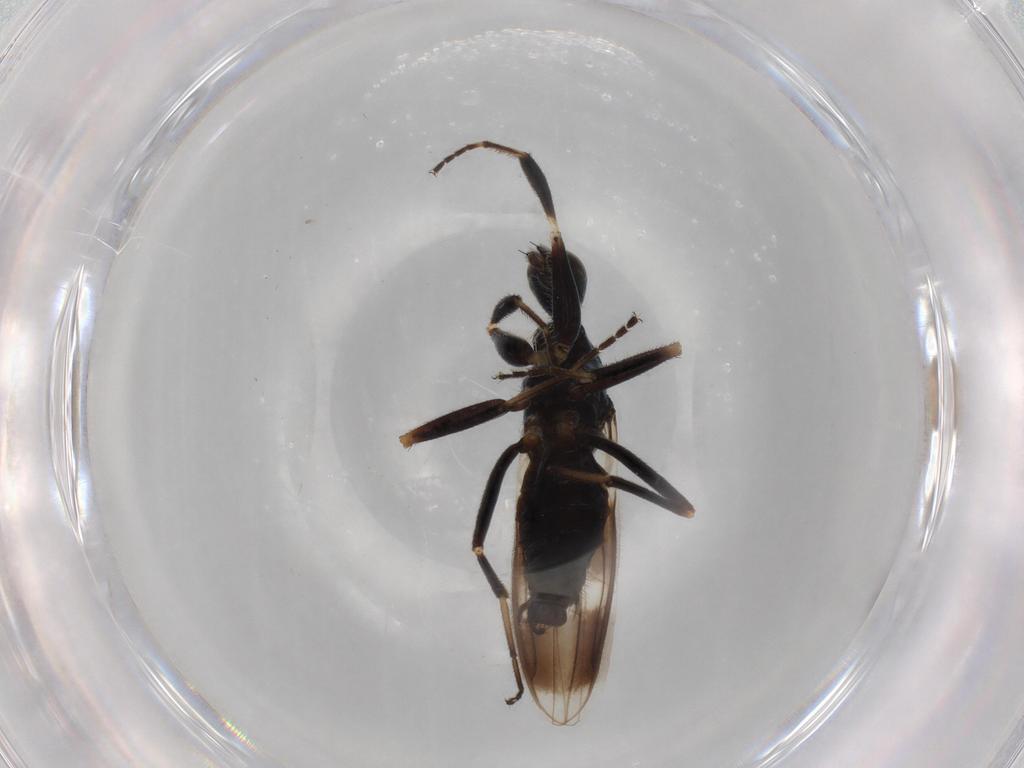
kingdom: Animalia
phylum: Arthropoda
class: Insecta
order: Diptera
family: Chloropidae
